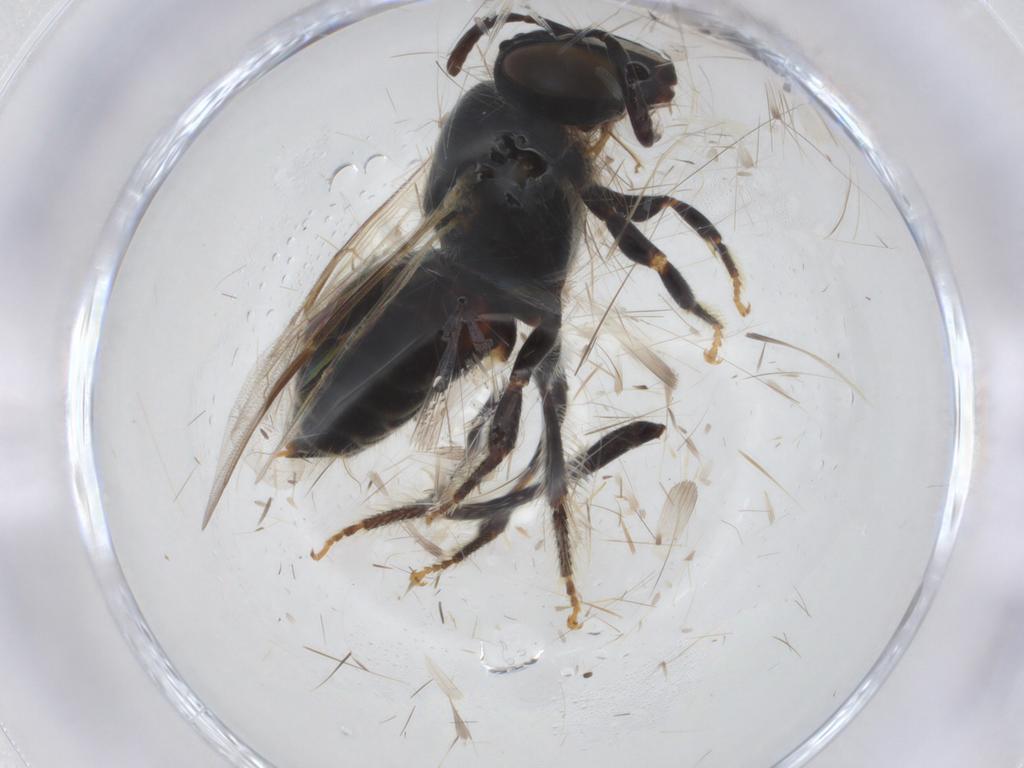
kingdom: Animalia
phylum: Arthropoda
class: Insecta
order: Hymenoptera
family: Apidae
